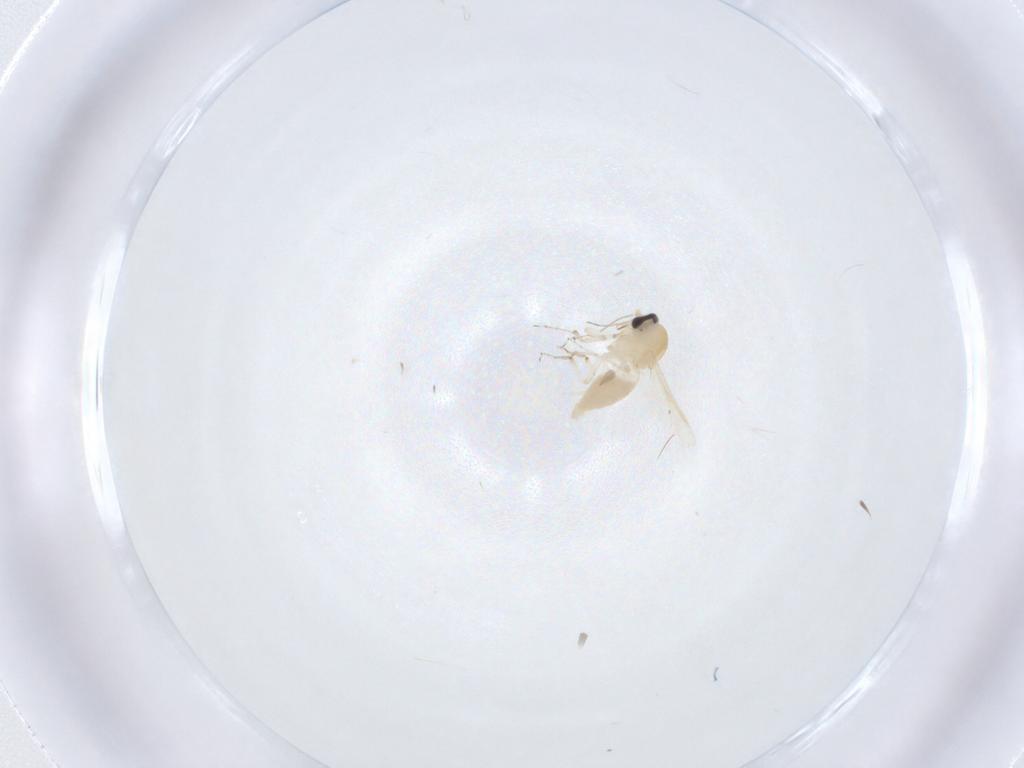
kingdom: Animalia
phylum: Arthropoda
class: Insecta
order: Diptera
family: Ceratopogonidae
